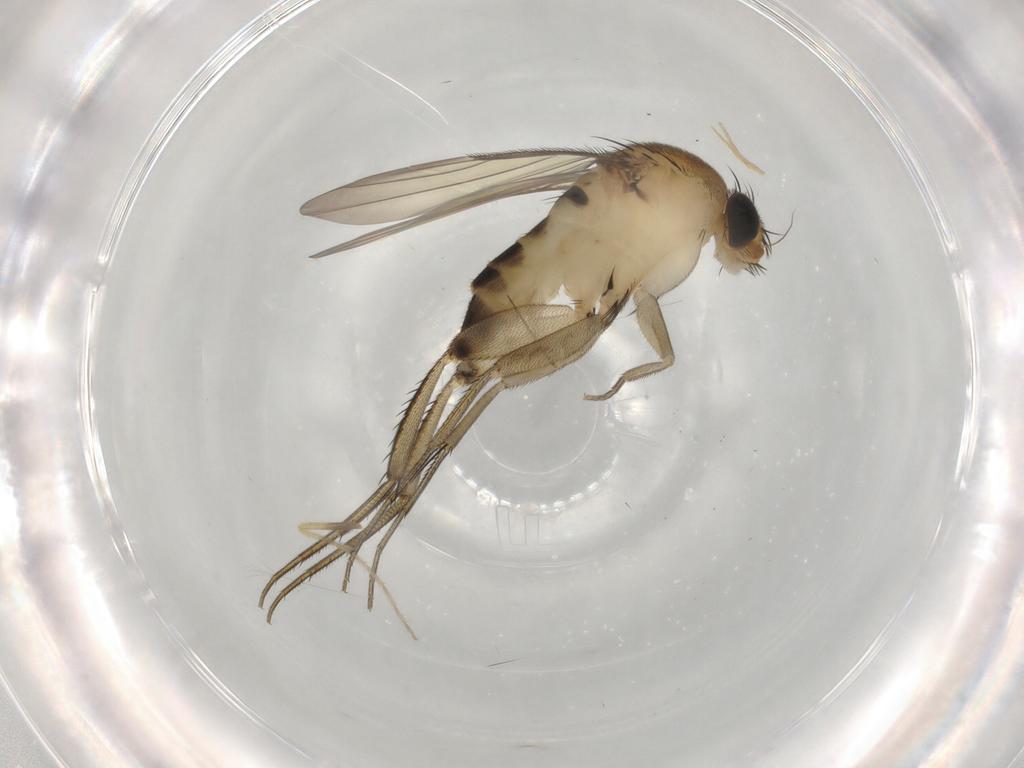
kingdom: Animalia
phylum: Arthropoda
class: Insecta
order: Diptera
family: Phoridae
